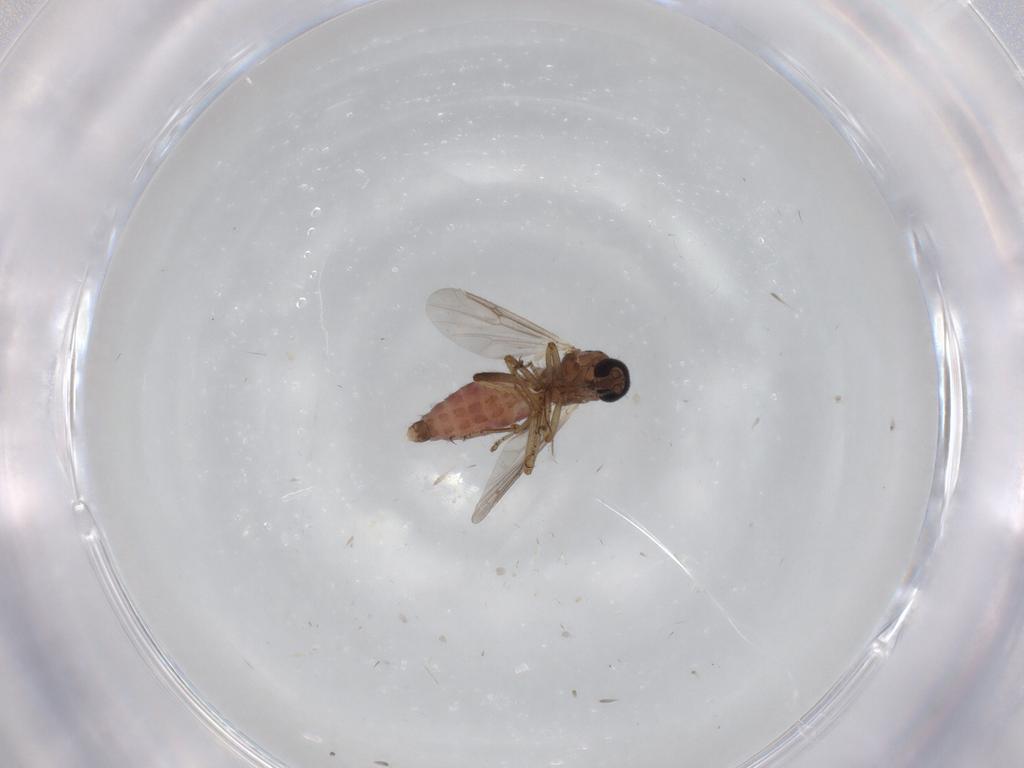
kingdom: Animalia
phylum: Arthropoda
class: Insecta
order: Diptera
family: Ceratopogonidae
